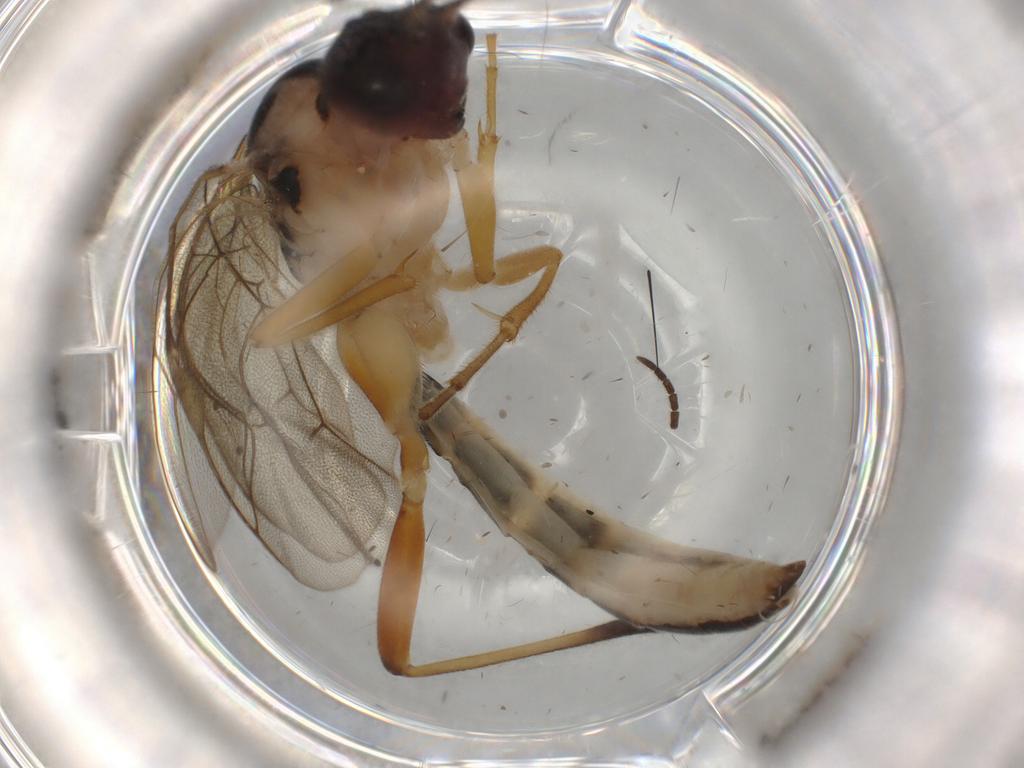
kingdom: Animalia
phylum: Arthropoda
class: Insecta
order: Hymenoptera
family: Ichneumonidae
